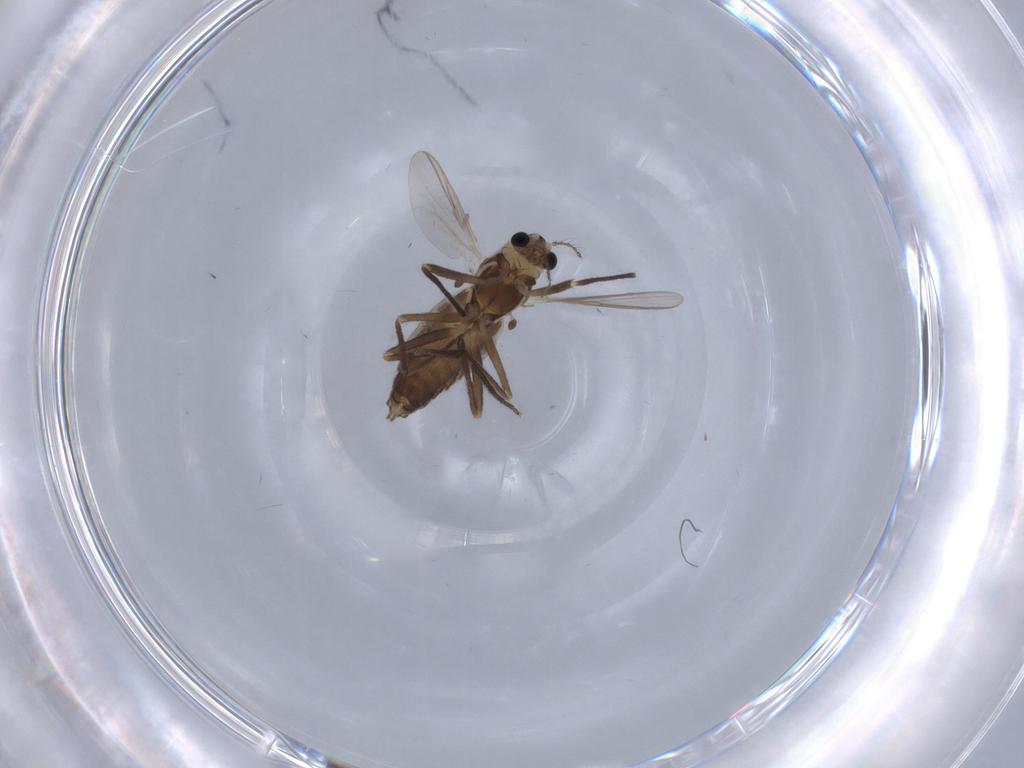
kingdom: Animalia
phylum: Arthropoda
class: Insecta
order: Diptera
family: Chironomidae
